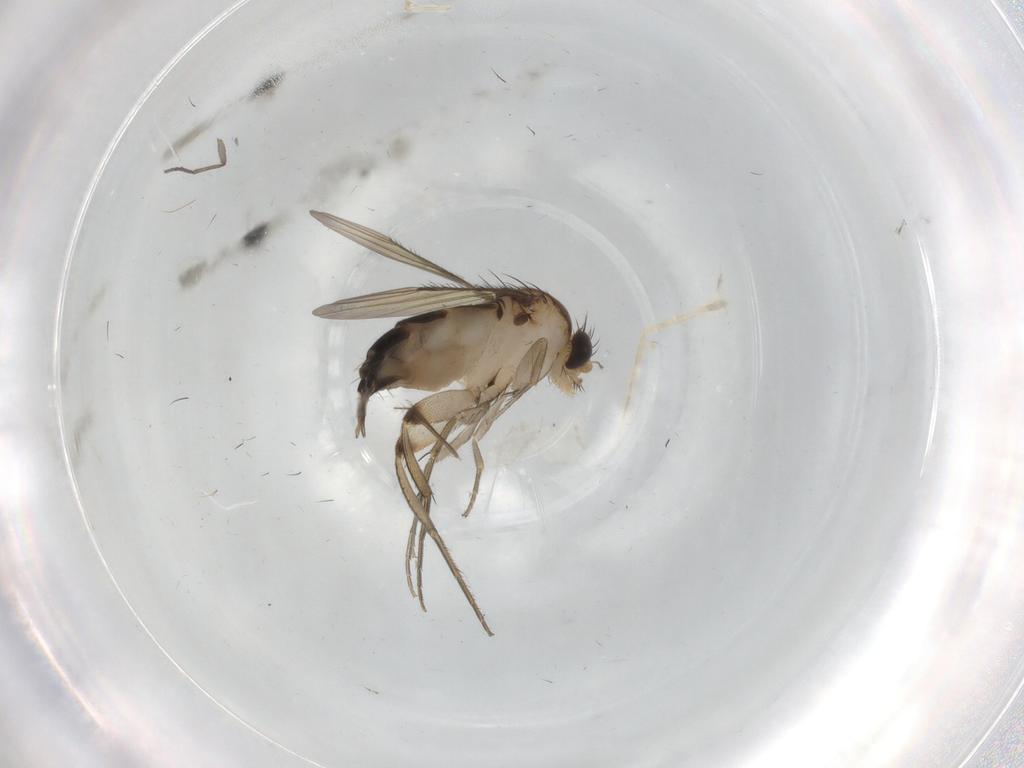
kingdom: Animalia
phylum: Arthropoda
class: Insecta
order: Diptera
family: Phoridae
